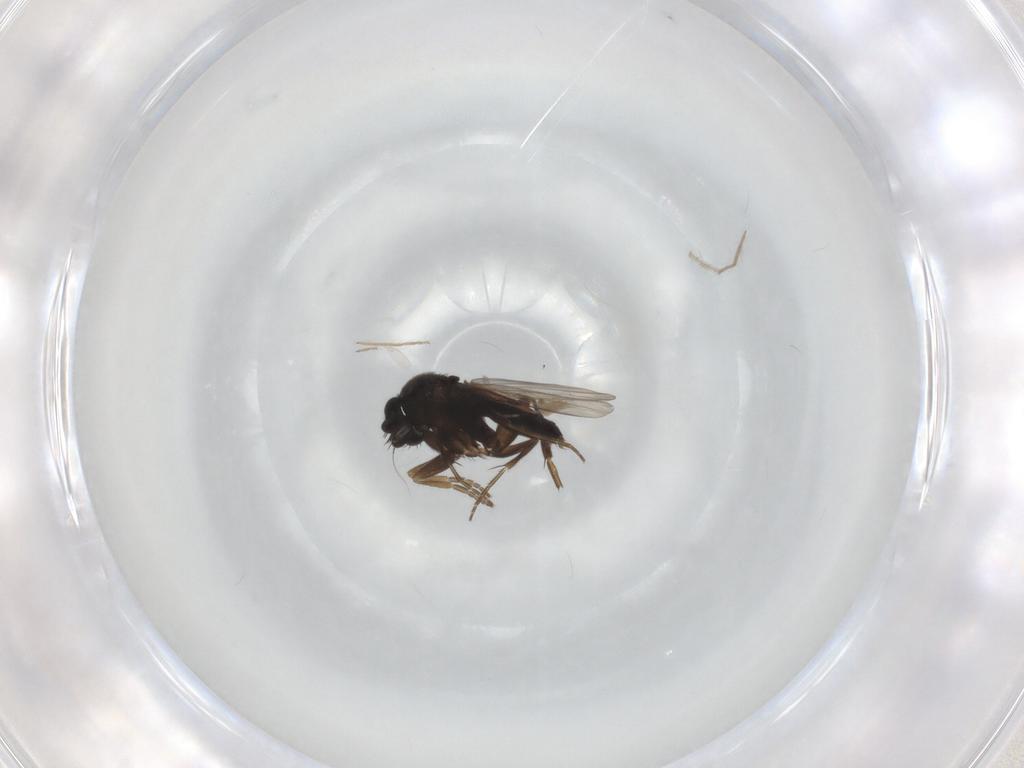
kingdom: Animalia
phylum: Arthropoda
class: Insecta
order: Diptera
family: Phoridae
